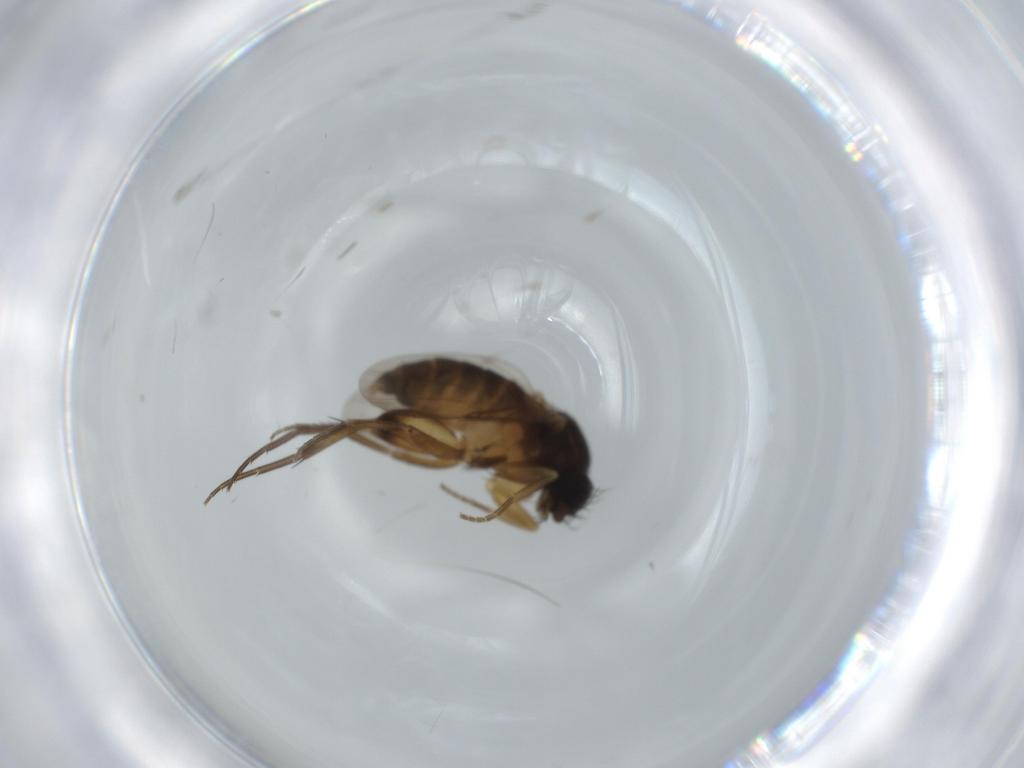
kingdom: Animalia
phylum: Arthropoda
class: Insecta
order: Diptera
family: Phoridae
